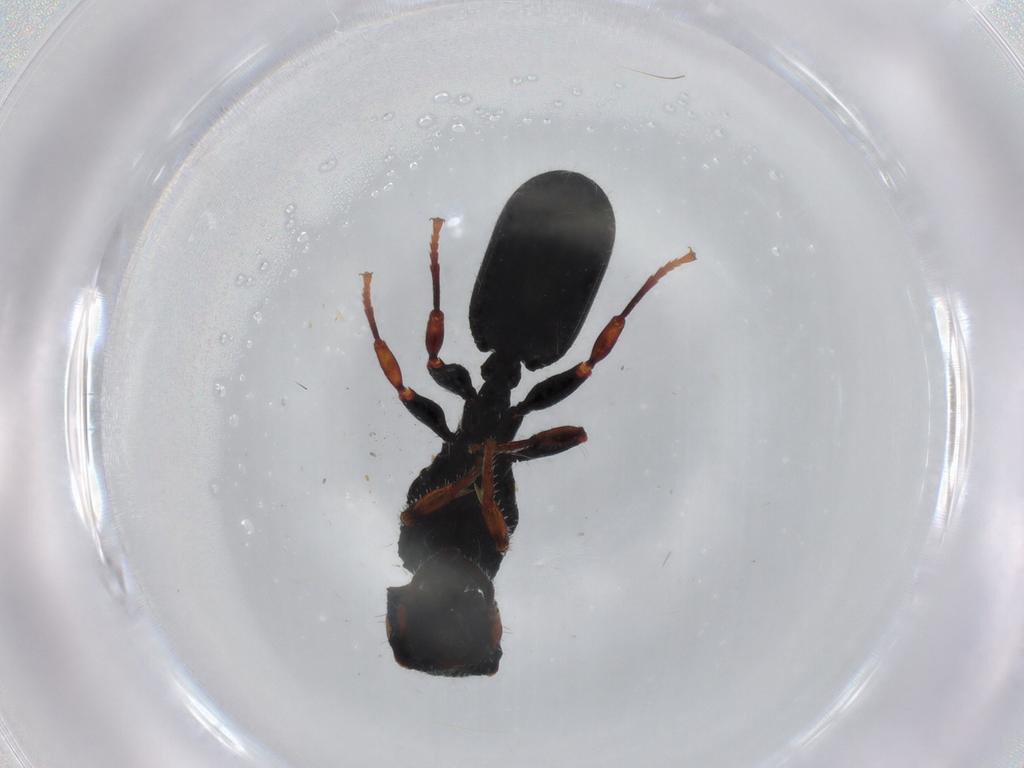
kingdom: Animalia
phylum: Arthropoda
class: Insecta
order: Hymenoptera
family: Formicidae
